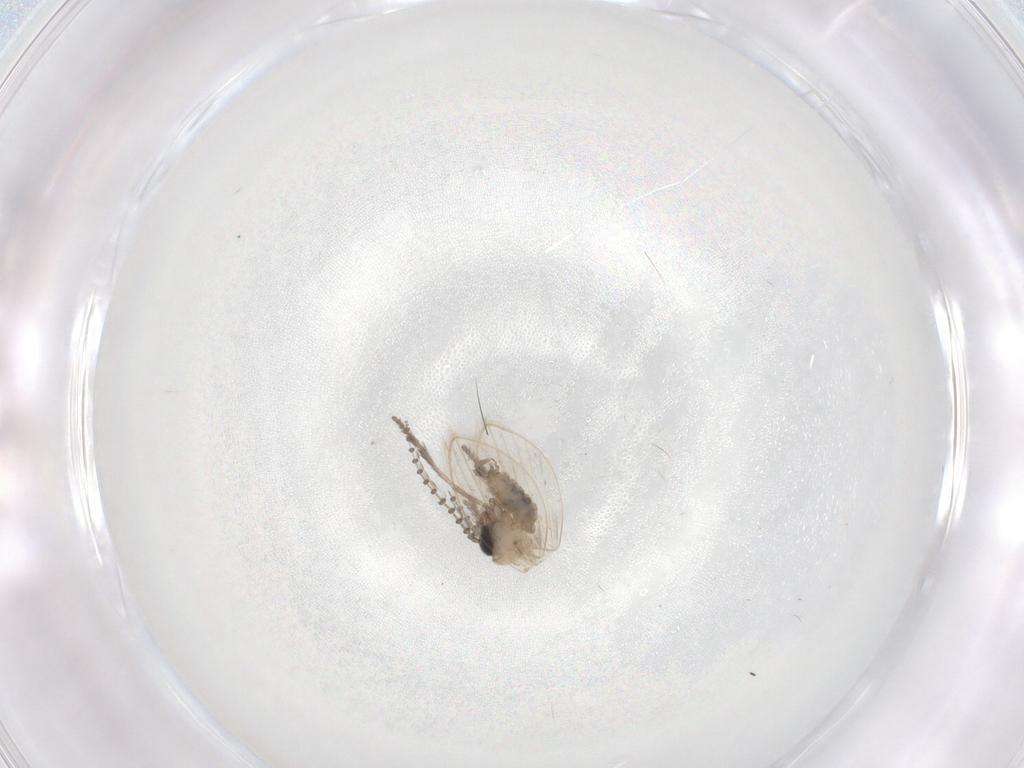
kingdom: Animalia
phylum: Arthropoda
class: Insecta
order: Diptera
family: Psychodidae
